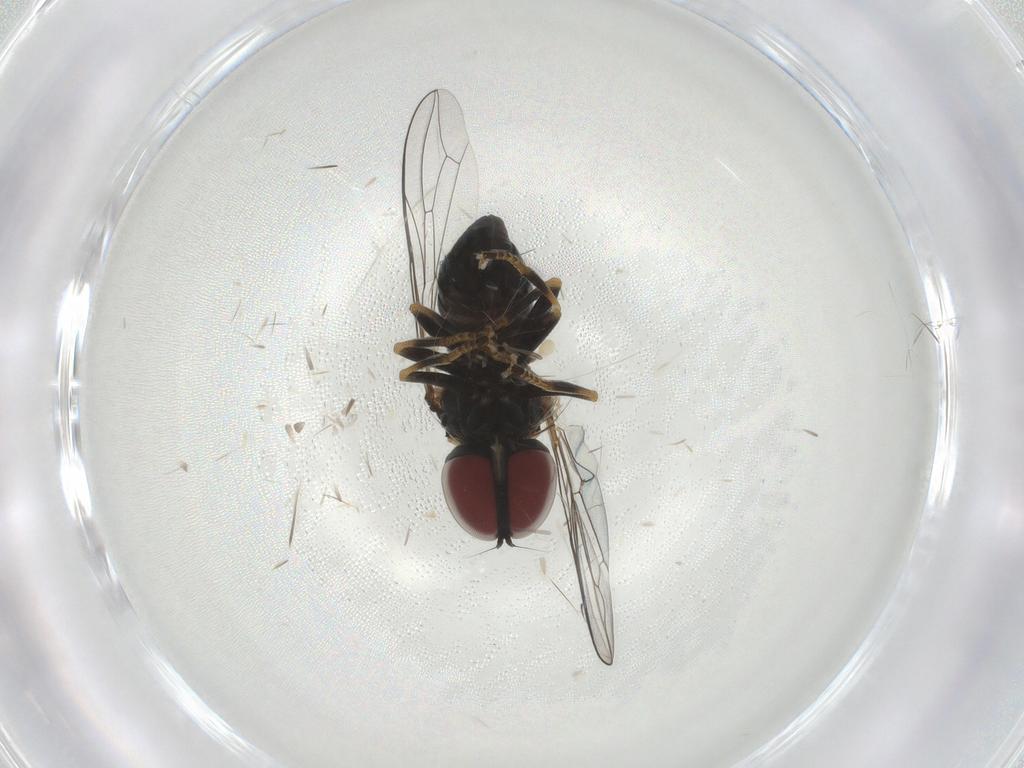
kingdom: Animalia
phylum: Arthropoda
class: Insecta
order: Diptera
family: Pipunculidae
